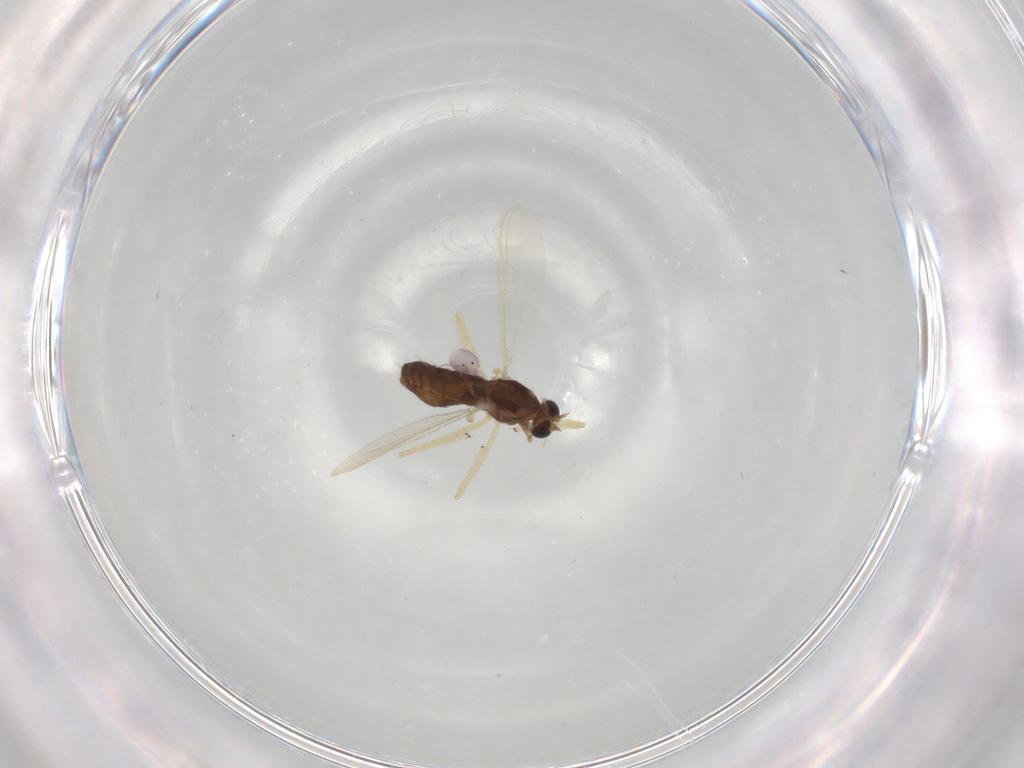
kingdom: Animalia
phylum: Arthropoda
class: Insecta
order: Diptera
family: Chironomidae
